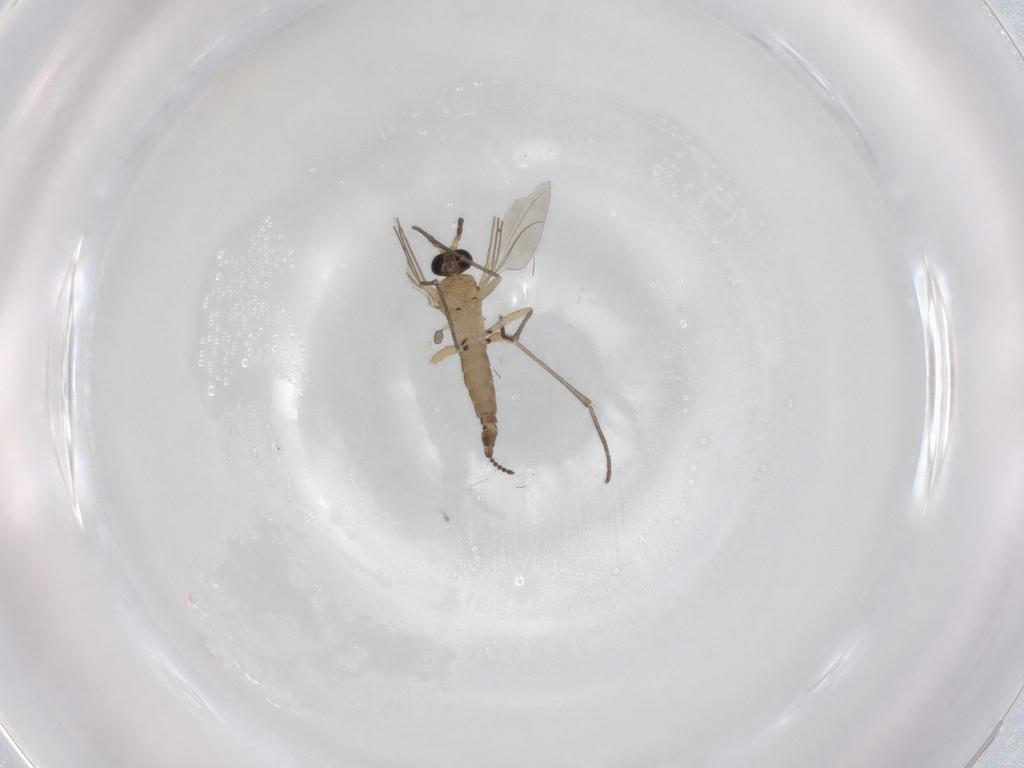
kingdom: Animalia
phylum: Arthropoda
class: Insecta
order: Diptera
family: Sciaridae
